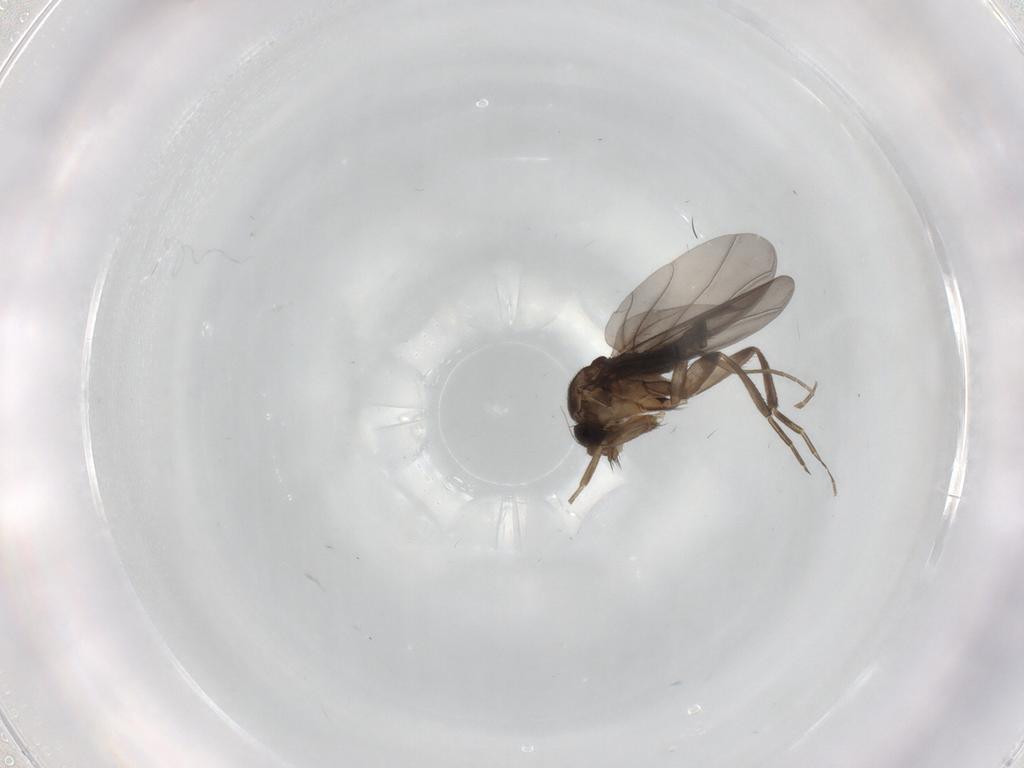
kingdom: Animalia
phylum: Arthropoda
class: Insecta
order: Diptera
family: Phoridae
